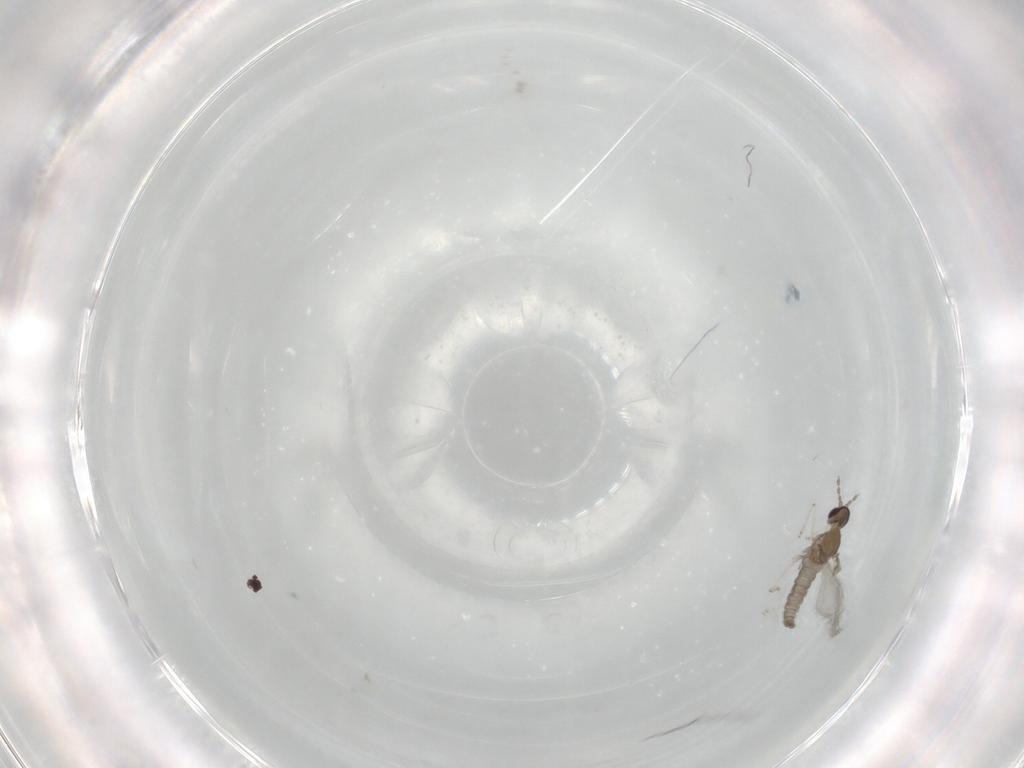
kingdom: Animalia
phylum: Arthropoda
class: Insecta
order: Diptera
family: Cecidomyiidae
